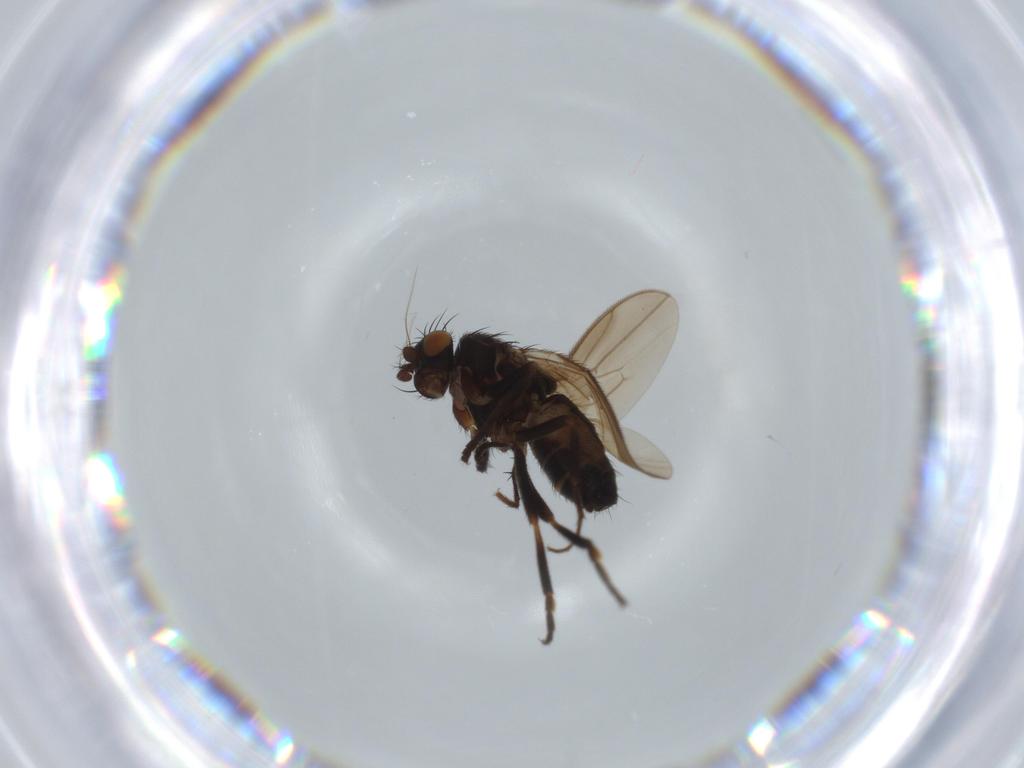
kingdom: Animalia
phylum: Arthropoda
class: Insecta
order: Diptera
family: Sphaeroceridae
